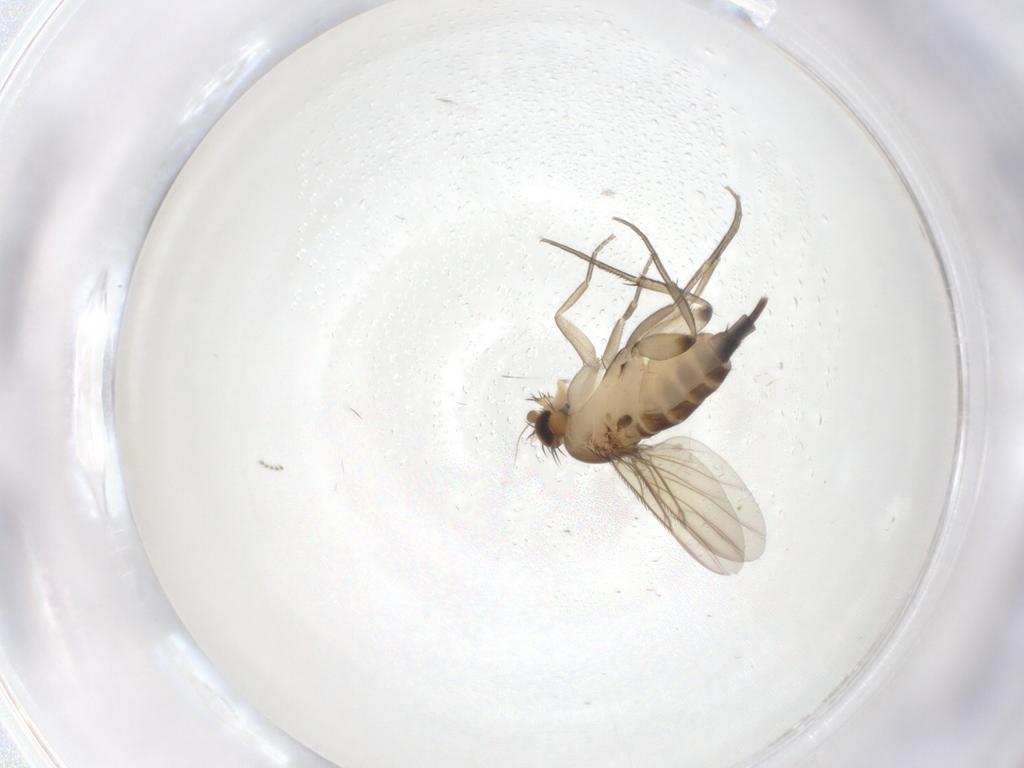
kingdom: Animalia
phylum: Arthropoda
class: Insecta
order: Diptera
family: Phoridae
